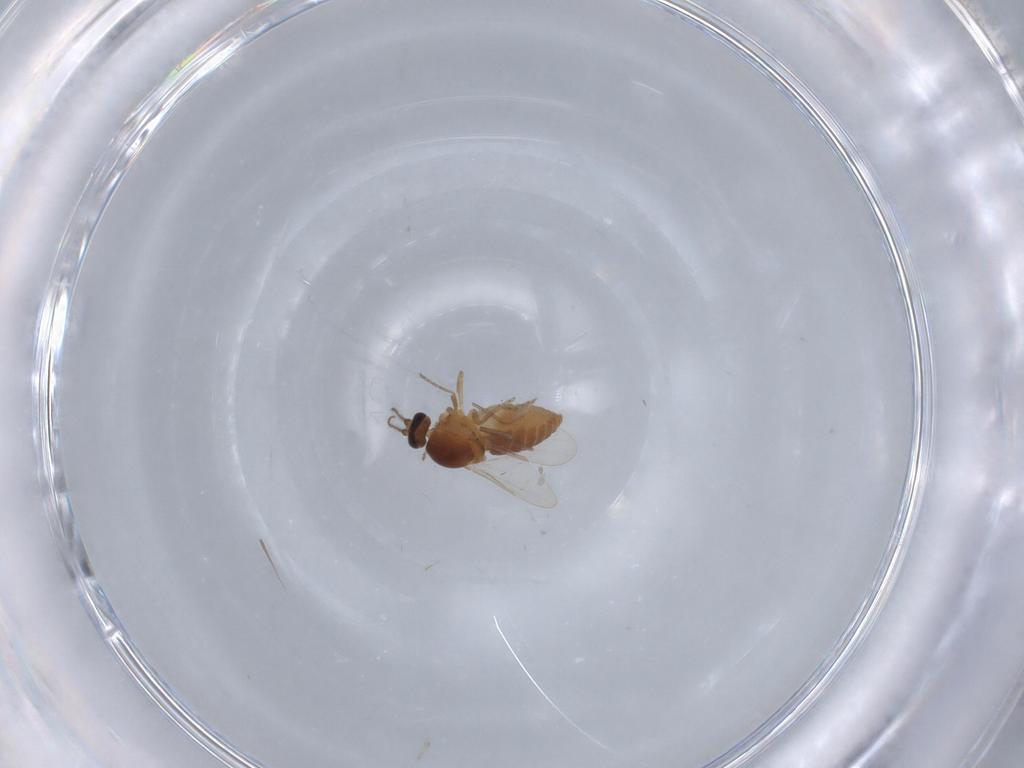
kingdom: Animalia
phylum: Arthropoda
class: Insecta
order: Diptera
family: Ceratopogonidae
